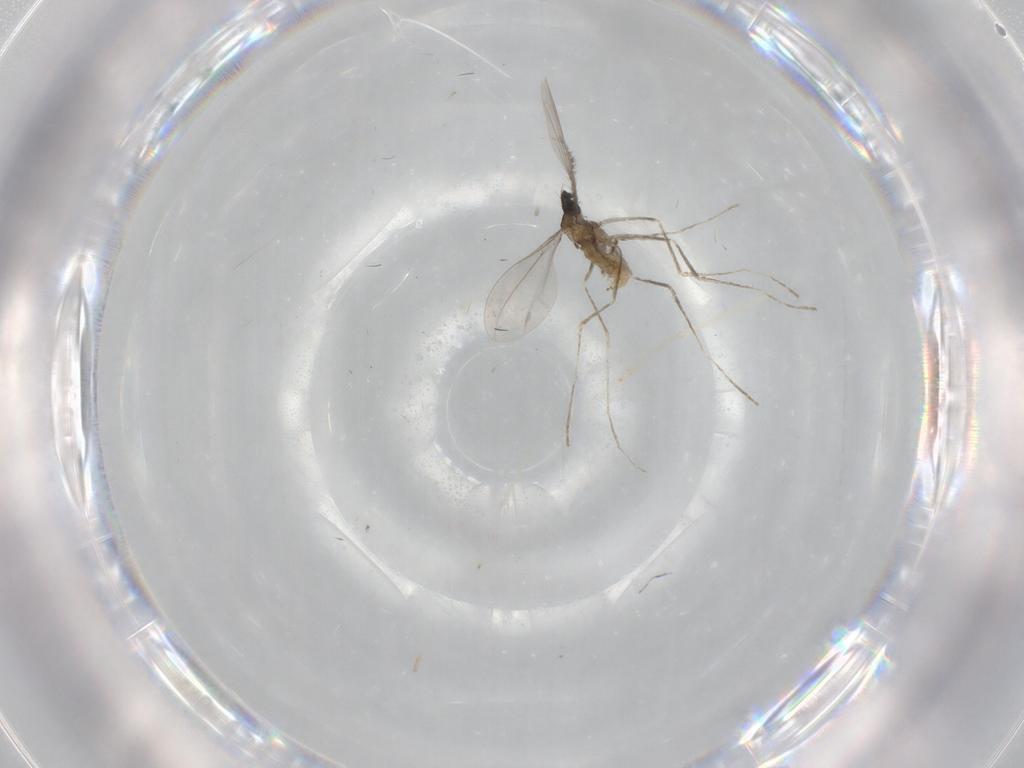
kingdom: Animalia
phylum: Arthropoda
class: Insecta
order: Diptera
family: Cecidomyiidae
